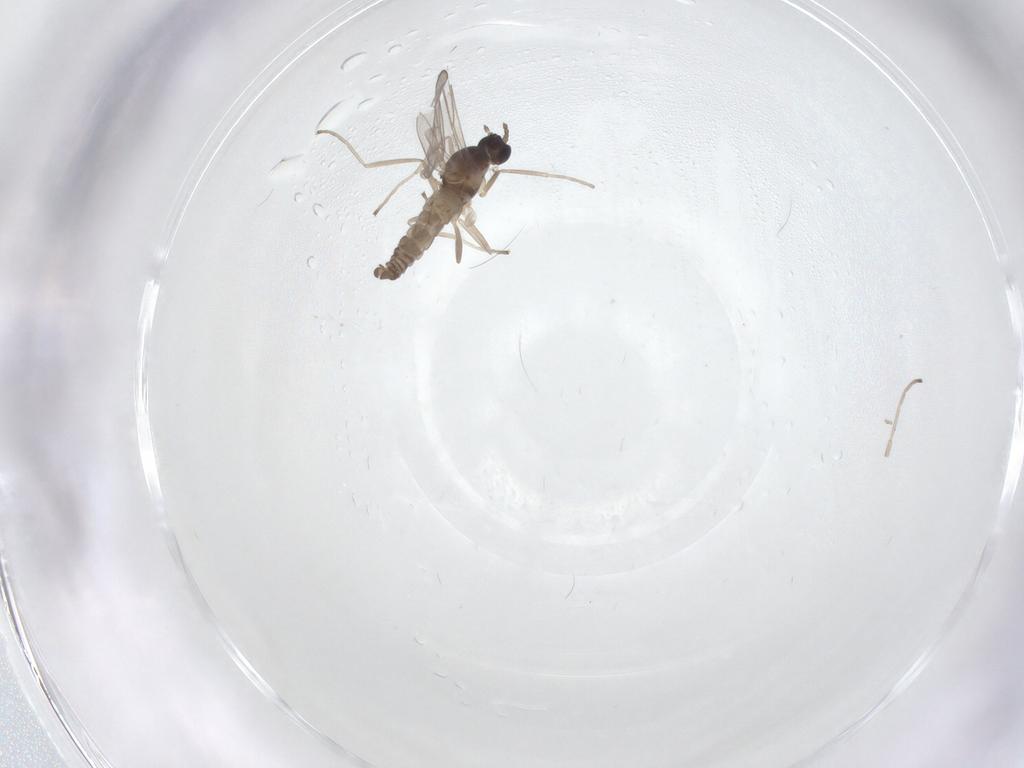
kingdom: Animalia
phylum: Arthropoda
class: Insecta
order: Diptera
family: Cecidomyiidae
